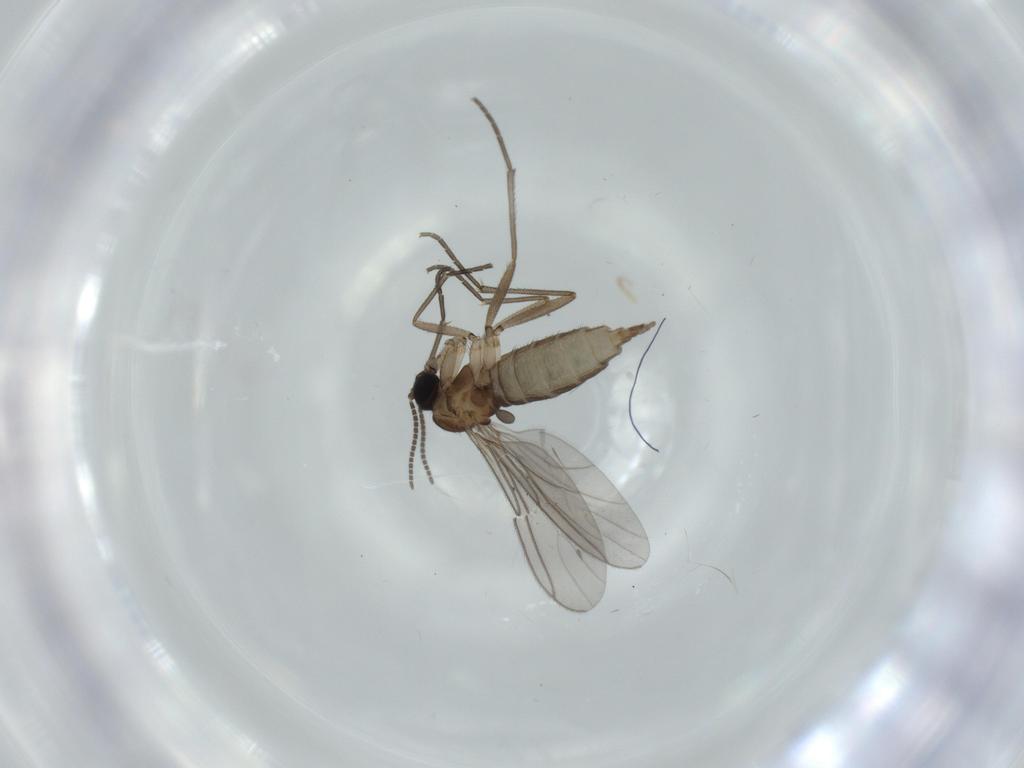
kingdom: Animalia
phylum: Arthropoda
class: Insecta
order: Diptera
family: Sciaridae
